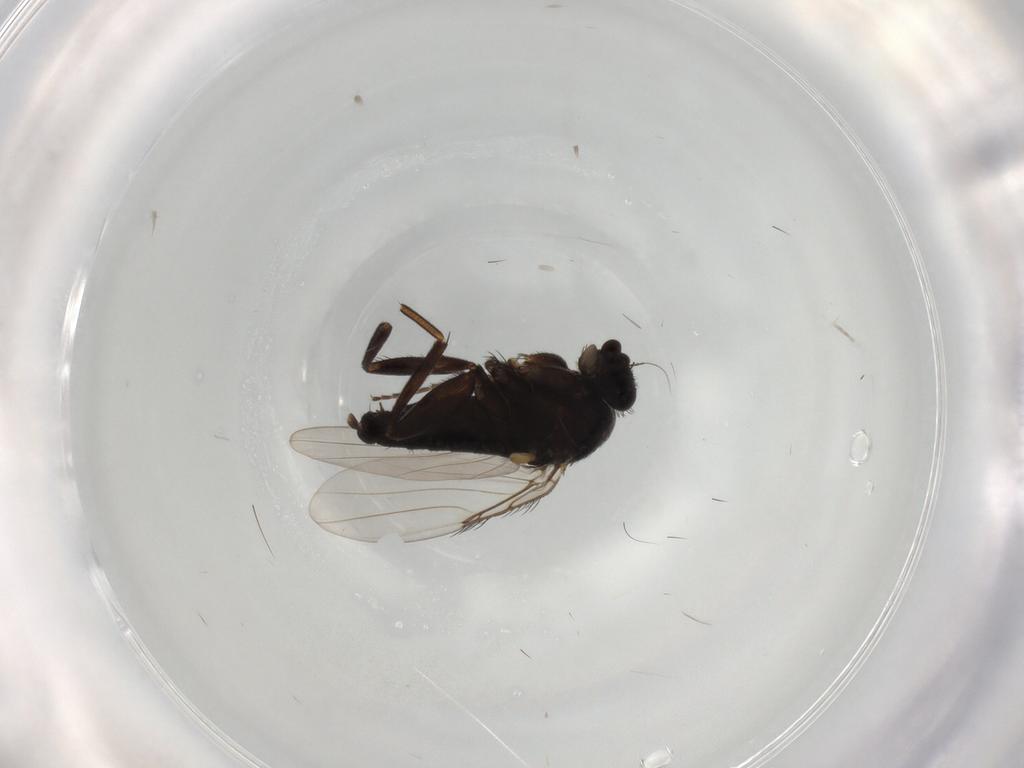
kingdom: Animalia
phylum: Arthropoda
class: Insecta
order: Diptera
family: Phoridae
